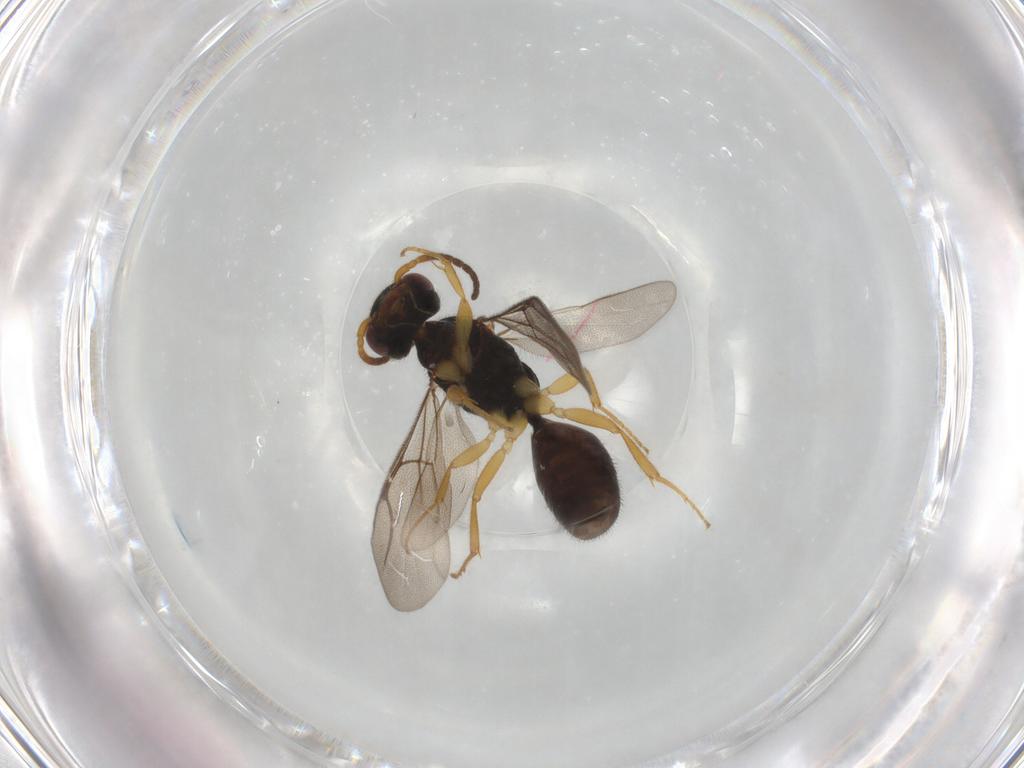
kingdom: Animalia
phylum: Arthropoda
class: Insecta
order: Hymenoptera
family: Bethylidae
